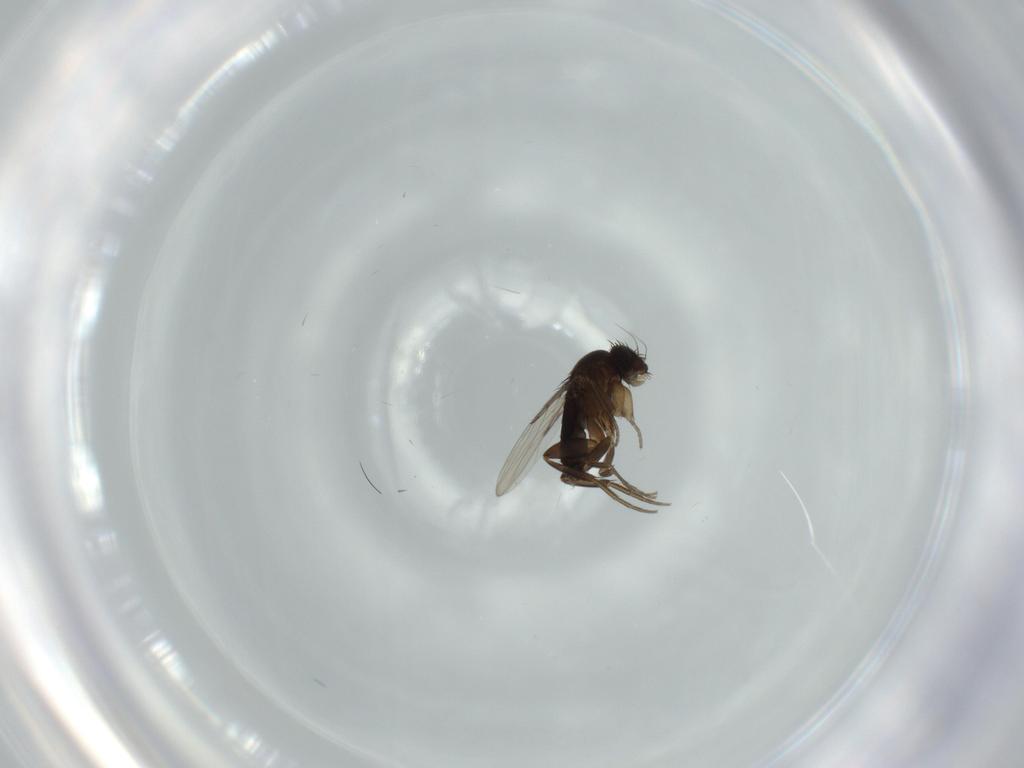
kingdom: Animalia
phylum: Arthropoda
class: Insecta
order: Diptera
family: Phoridae
